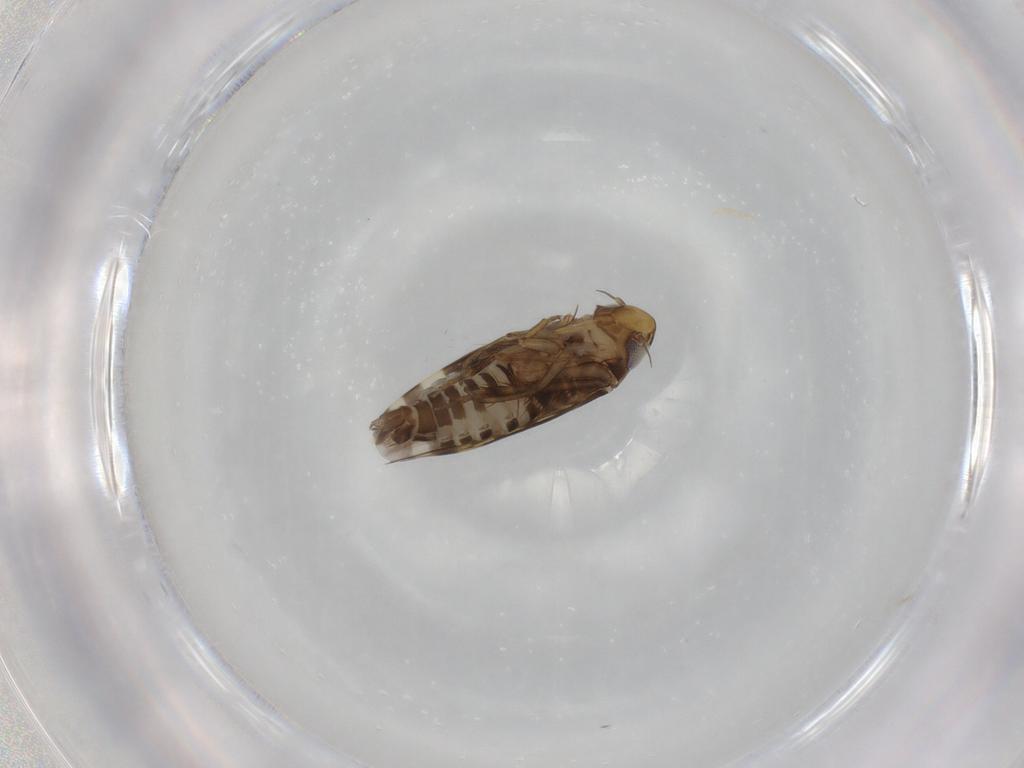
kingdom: Animalia
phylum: Arthropoda
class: Insecta
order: Hemiptera
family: Cicadellidae
